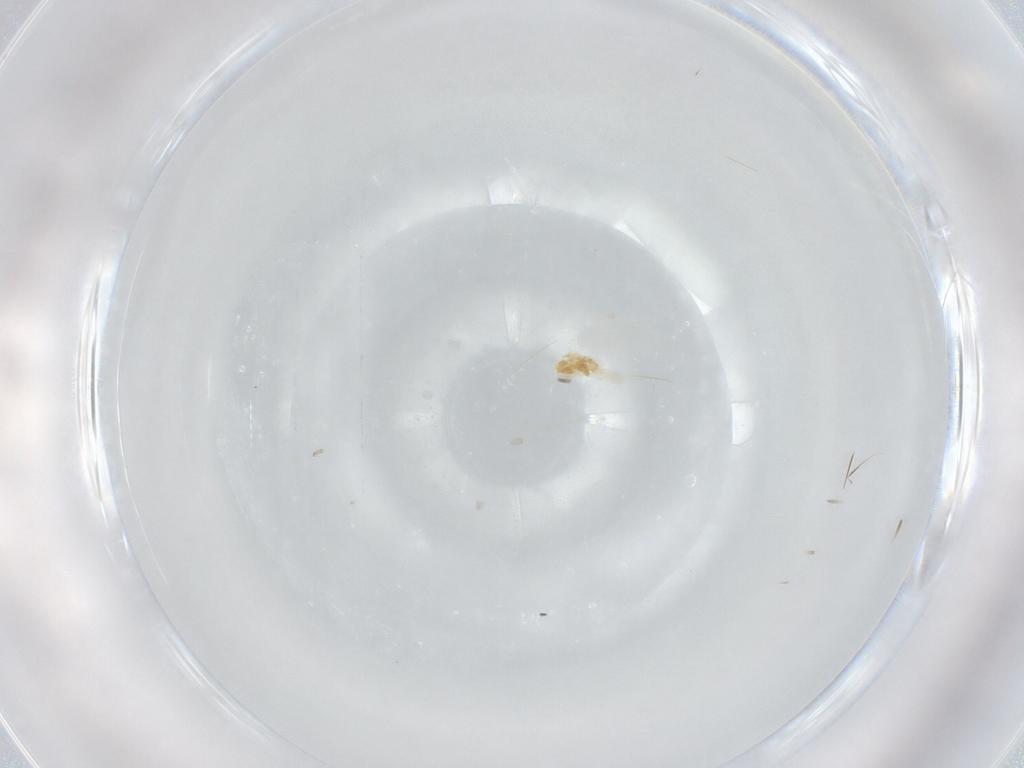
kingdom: Animalia
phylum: Arthropoda
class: Arachnida
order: Trombidiformes
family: Eupodidae
